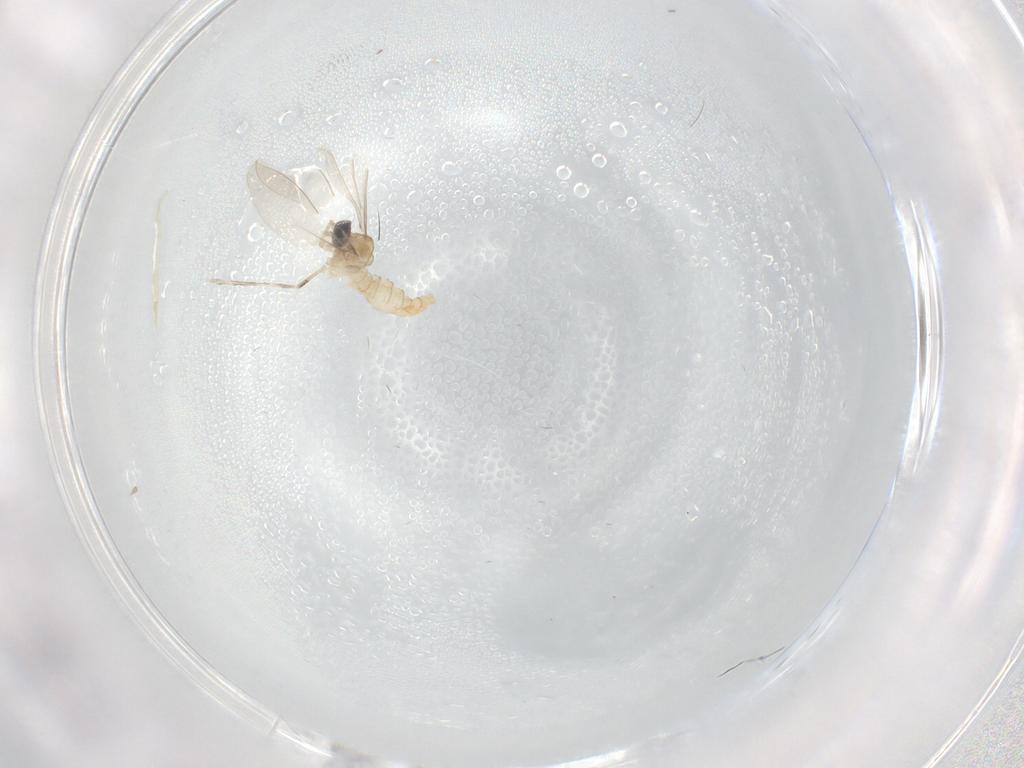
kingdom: Animalia
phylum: Arthropoda
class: Insecta
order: Diptera
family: Cecidomyiidae
